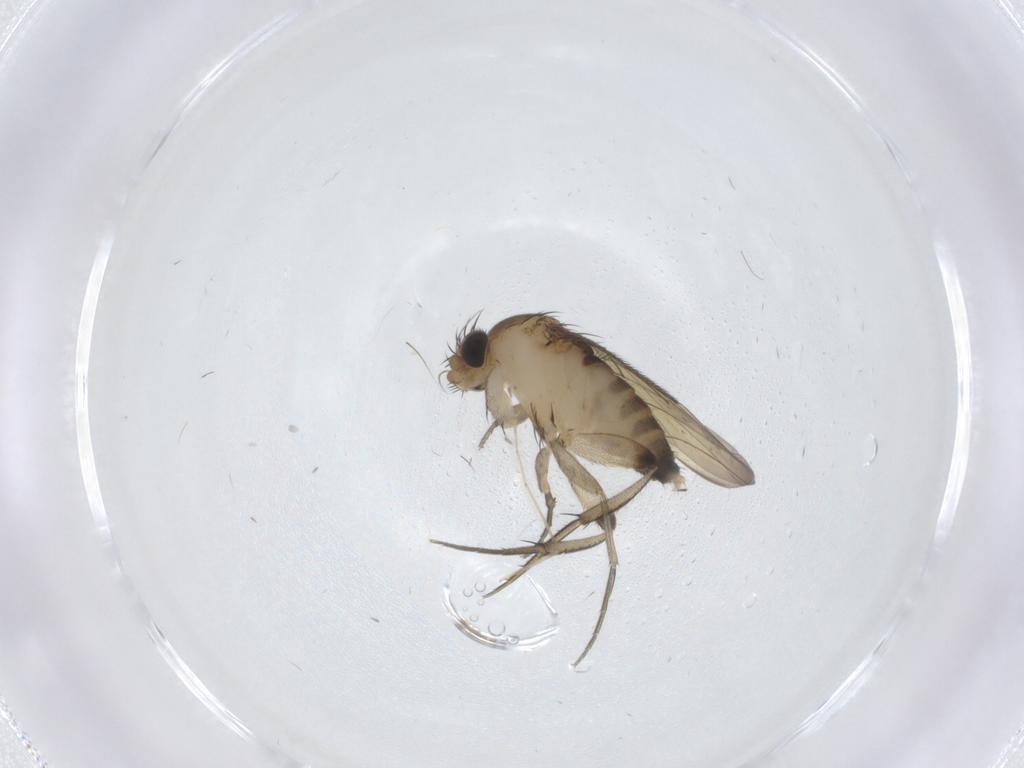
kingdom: Animalia
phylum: Arthropoda
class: Insecta
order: Diptera
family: Phoridae
